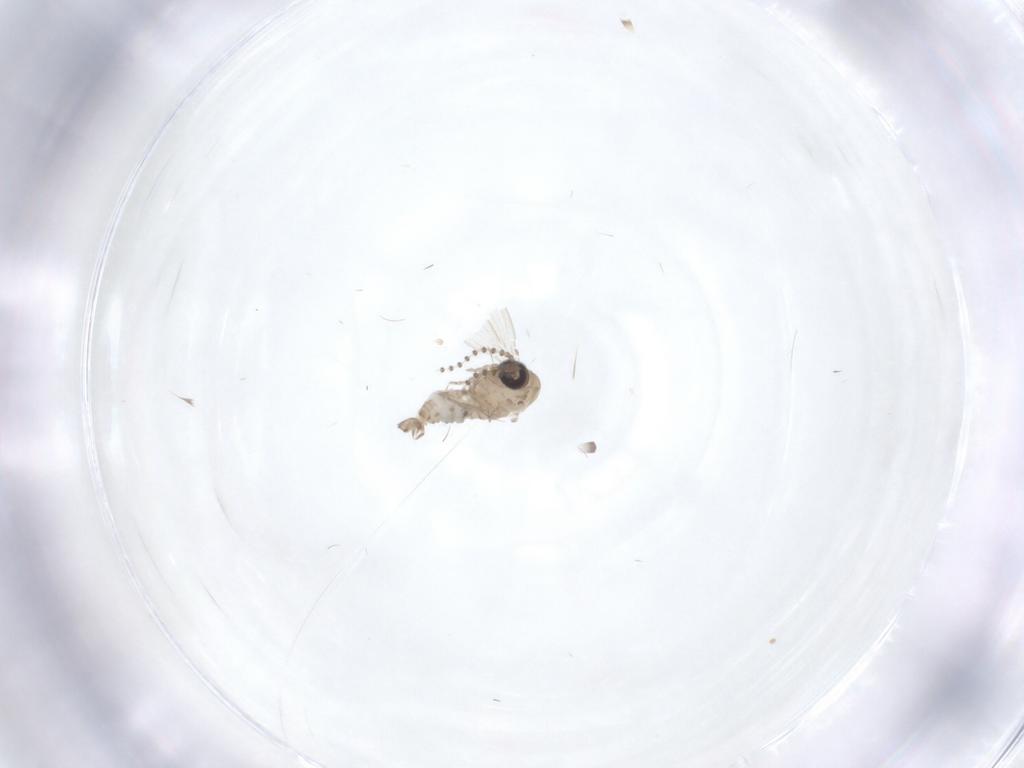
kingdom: Animalia
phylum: Arthropoda
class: Insecta
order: Diptera
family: Psychodidae
